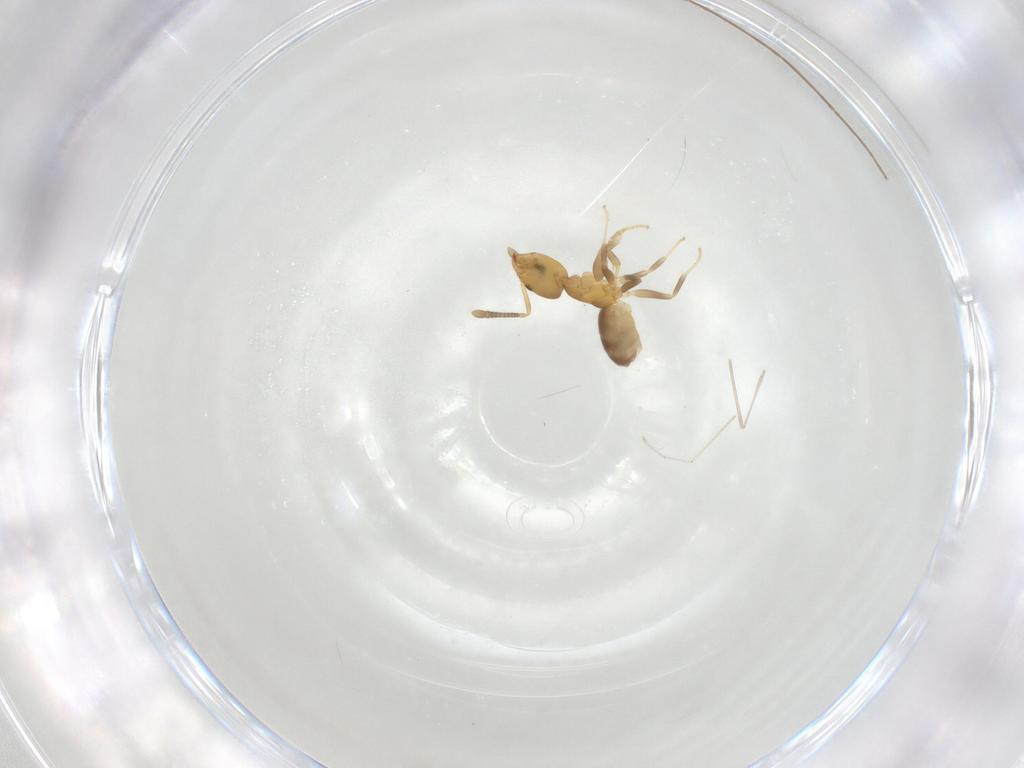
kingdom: Animalia
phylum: Arthropoda
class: Insecta
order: Hymenoptera
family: Formicidae
